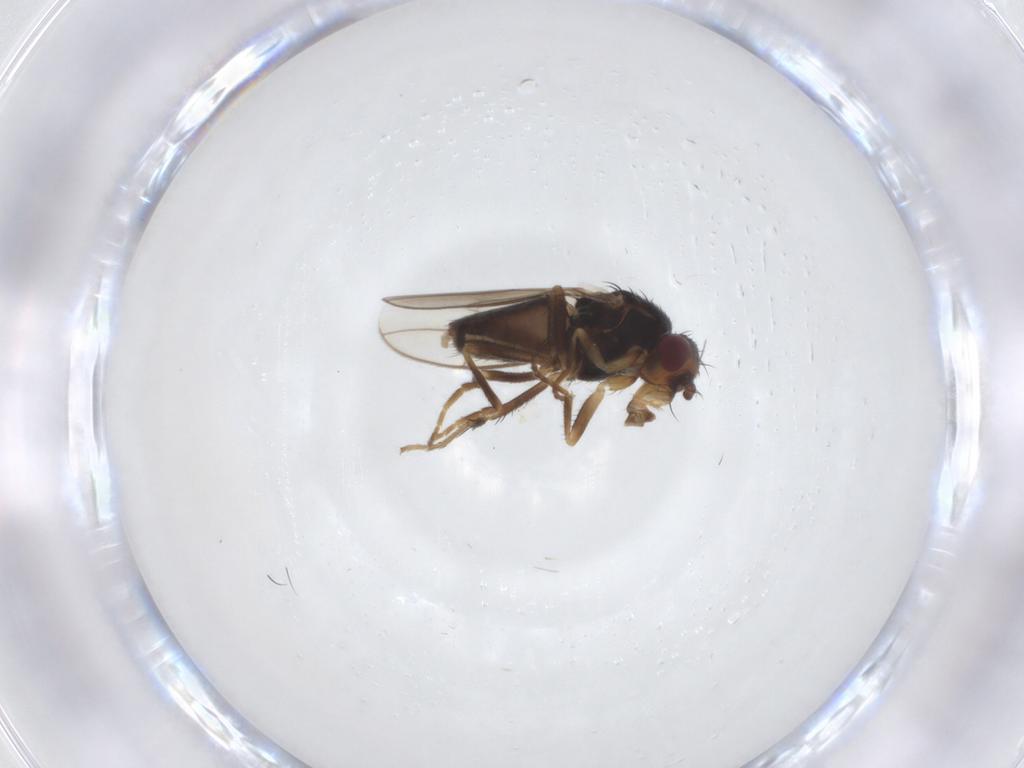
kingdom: Animalia
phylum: Arthropoda
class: Insecta
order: Diptera
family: Sphaeroceridae
